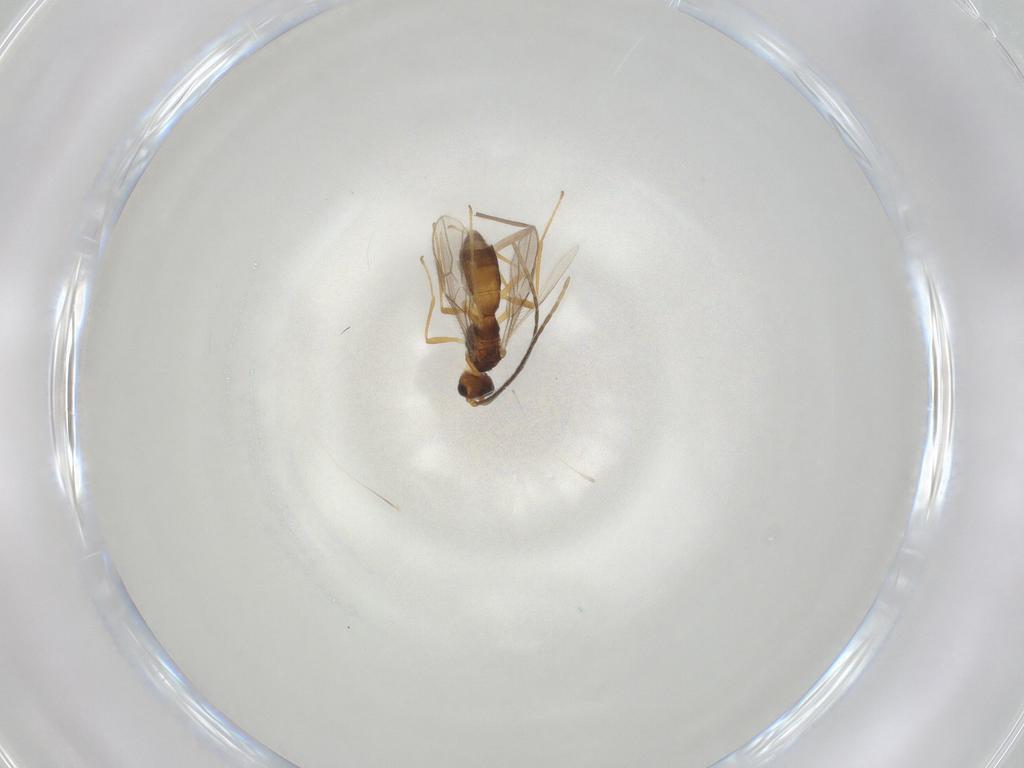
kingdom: Animalia
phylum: Arthropoda
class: Insecta
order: Hymenoptera
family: Braconidae
